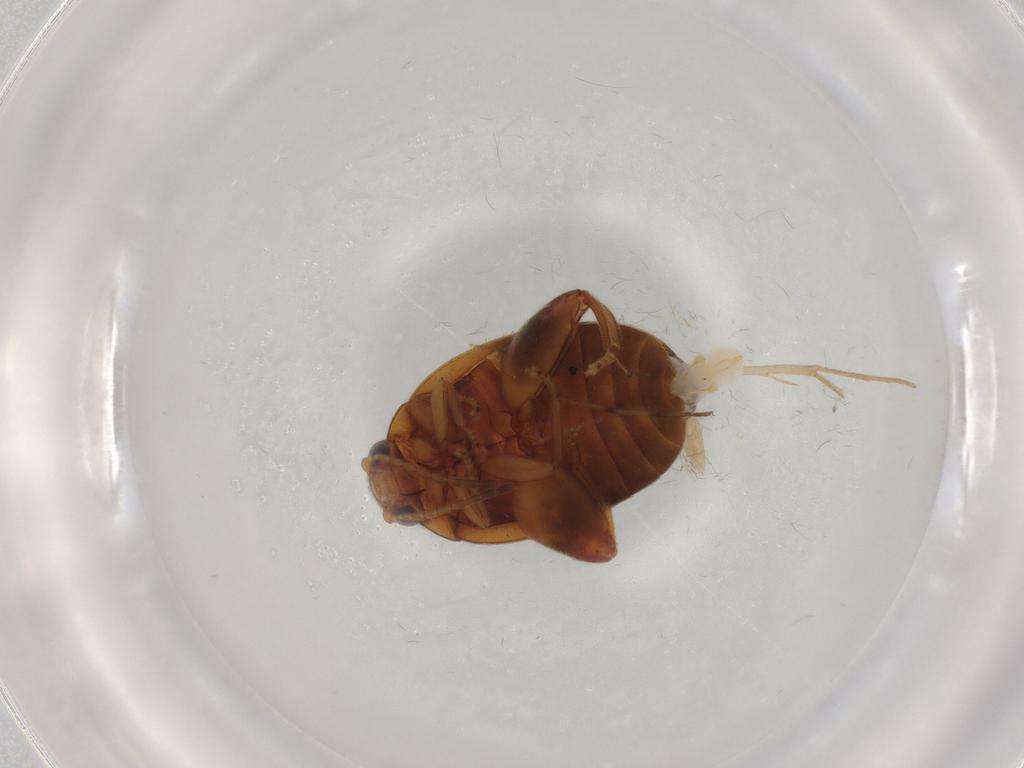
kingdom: Animalia
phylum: Arthropoda
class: Insecta
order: Coleoptera
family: Scirtidae
